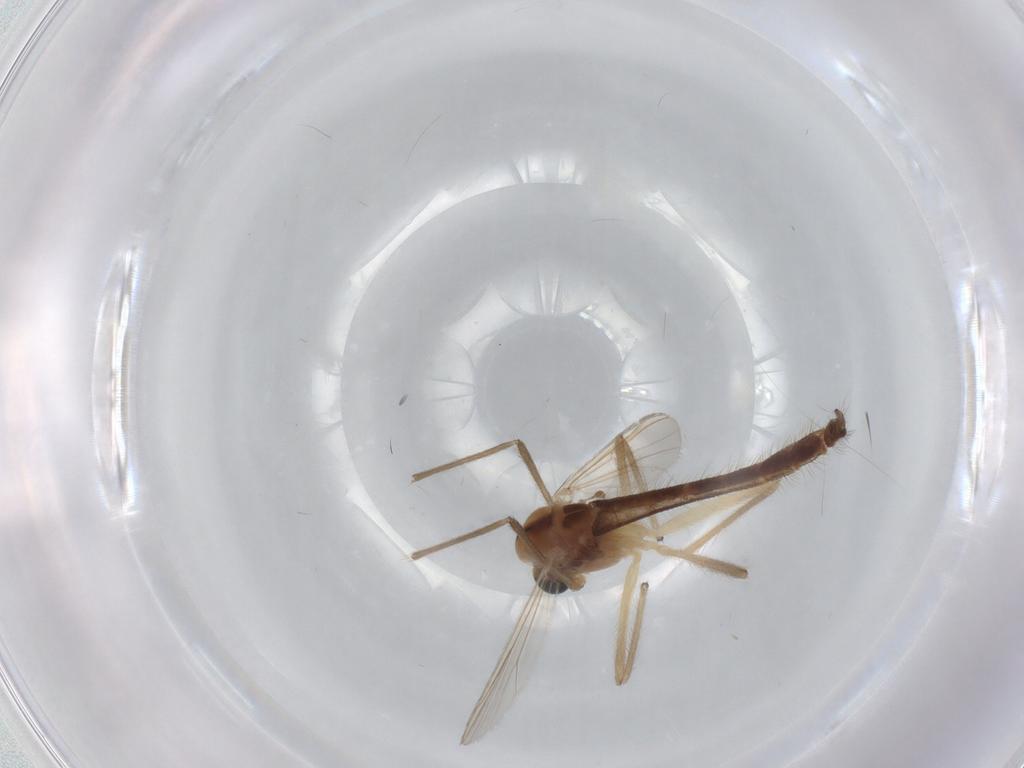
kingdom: Animalia
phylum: Arthropoda
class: Insecta
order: Diptera
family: Chironomidae
